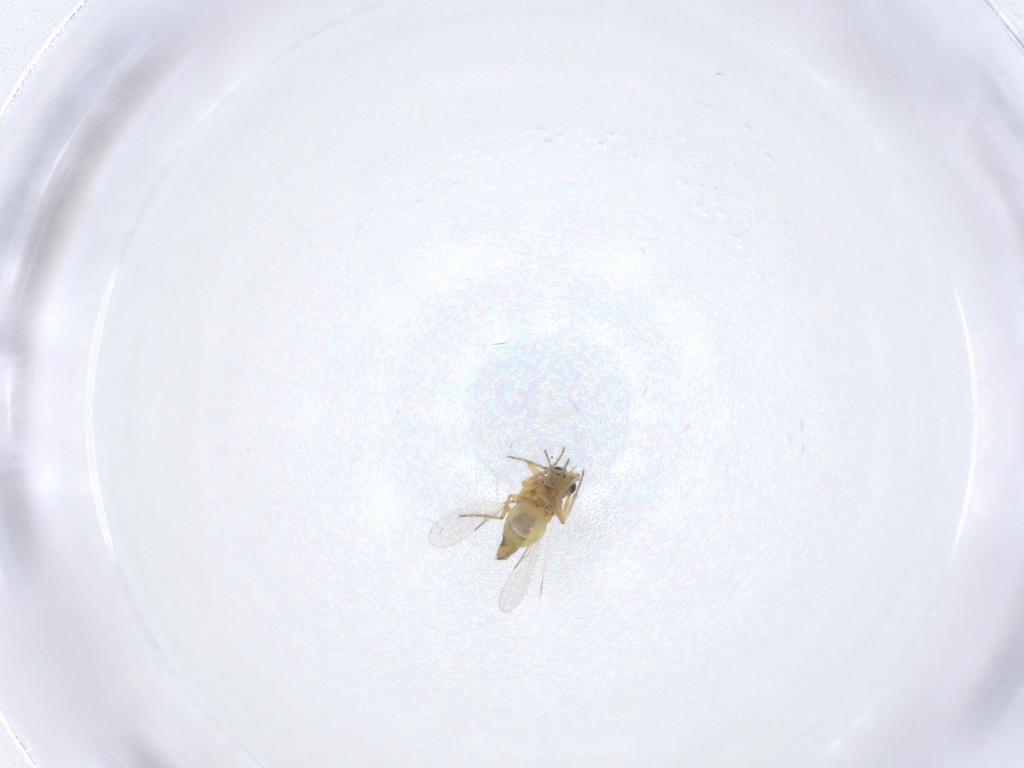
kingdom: Animalia
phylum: Arthropoda
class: Insecta
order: Diptera
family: Ceratopogonidae
